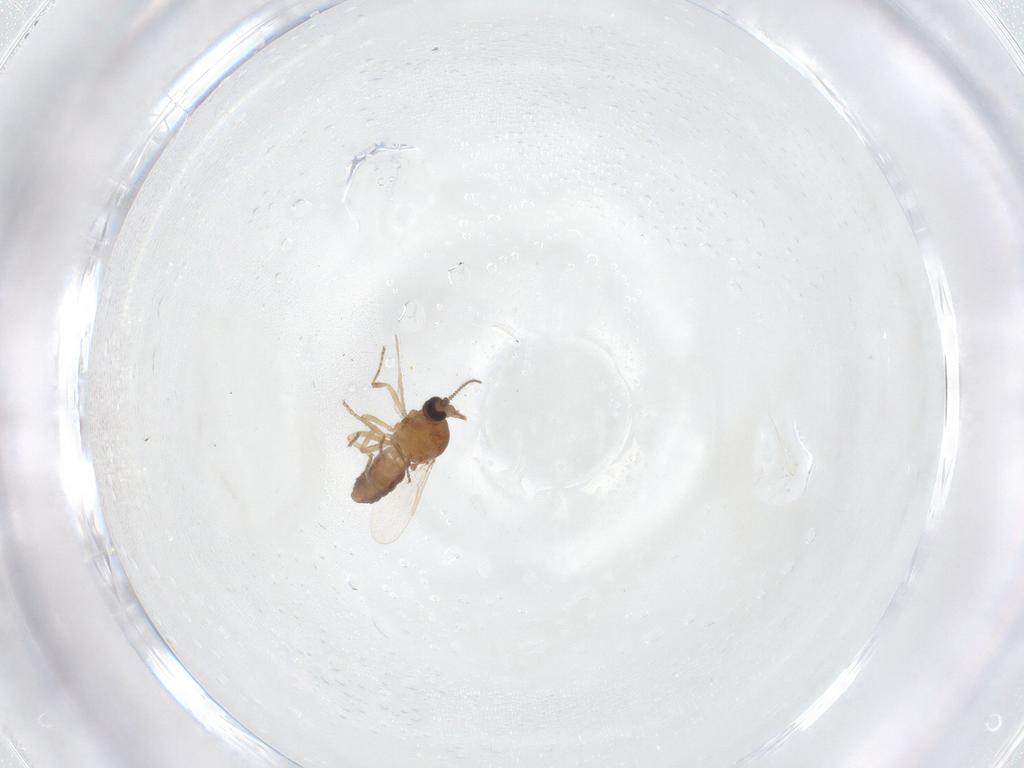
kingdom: Animalia
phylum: Arthropoda
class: Insecta
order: Diptera
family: Ceratopogonidae
